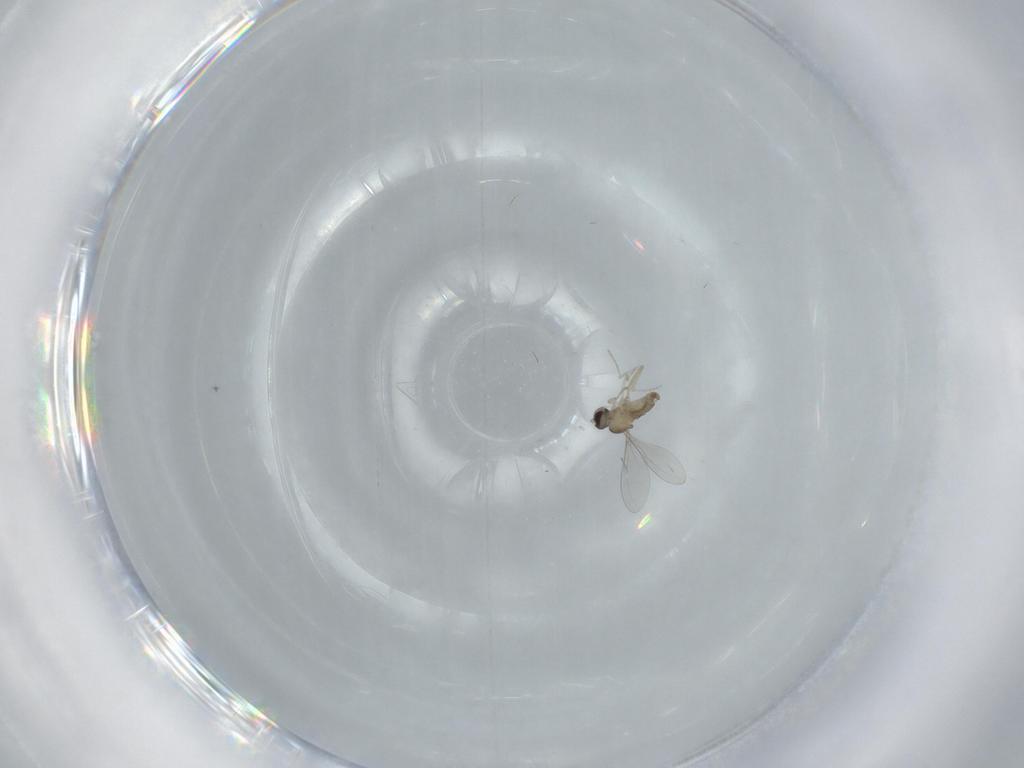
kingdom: Animalia
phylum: Arthropoda
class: Insecta
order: Diptera
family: Cecidomyiidae
